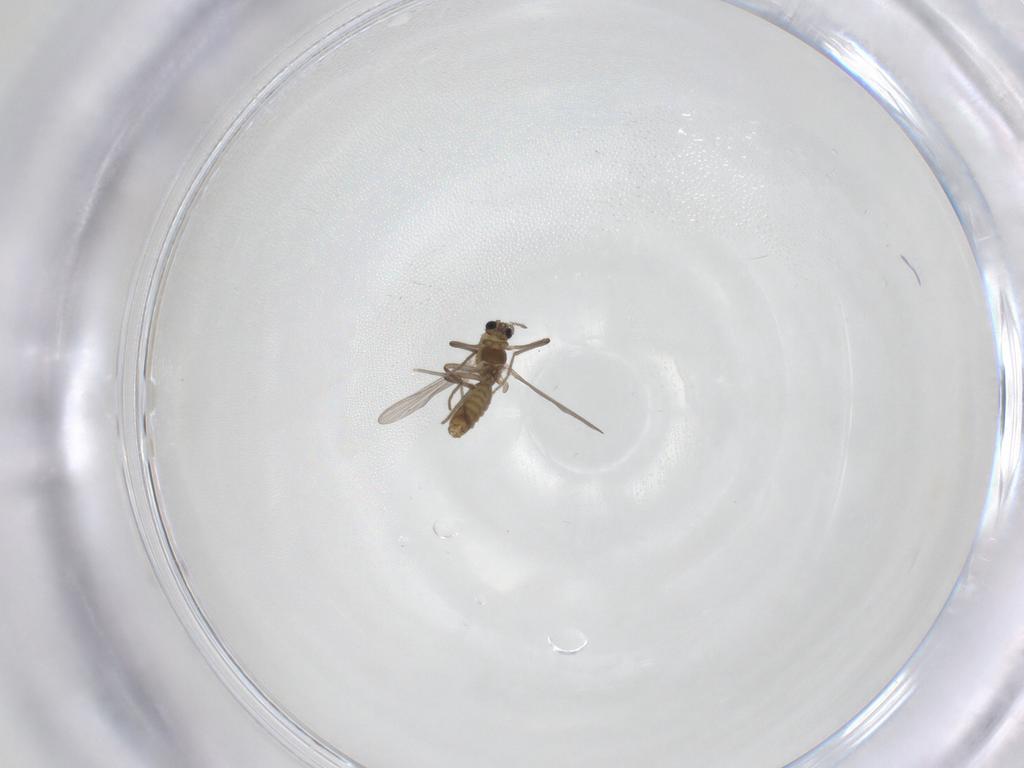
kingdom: Animalia
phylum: Arthropoda
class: Insecta
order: Diptera
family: Chironomidae
